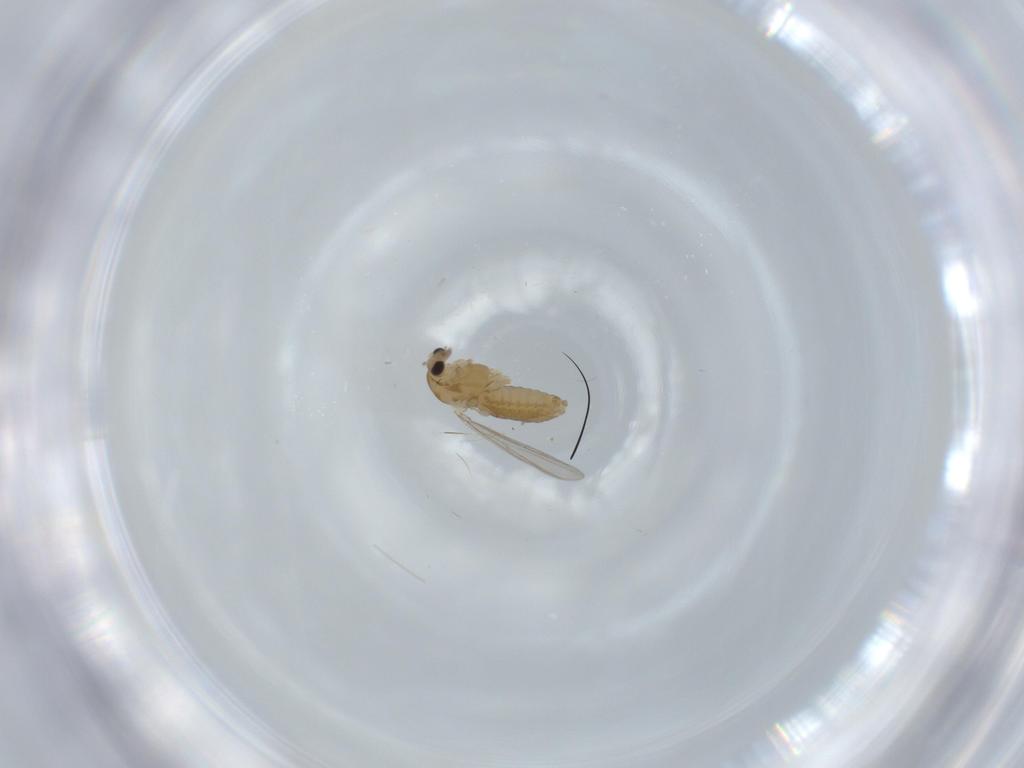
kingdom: Animalia
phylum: Arthropoda
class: Insecta
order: Diptera
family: Chironomidae
